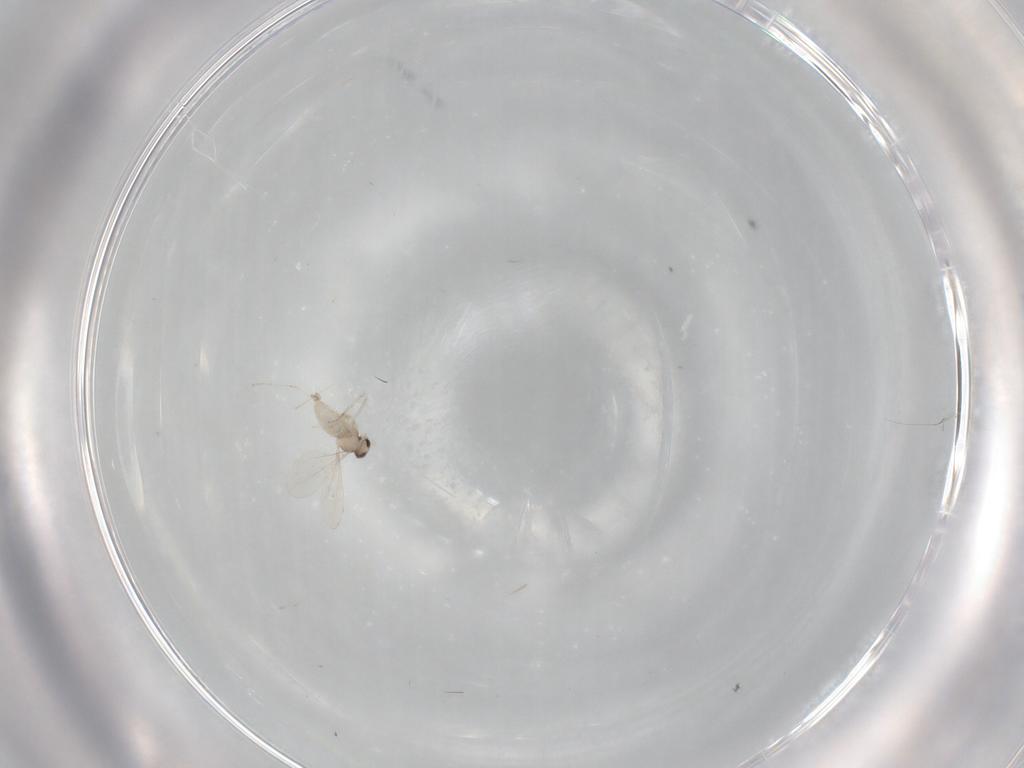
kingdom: Animalia
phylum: Arthropoda
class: Insecta
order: Diptera
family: Cecidomyiidae
